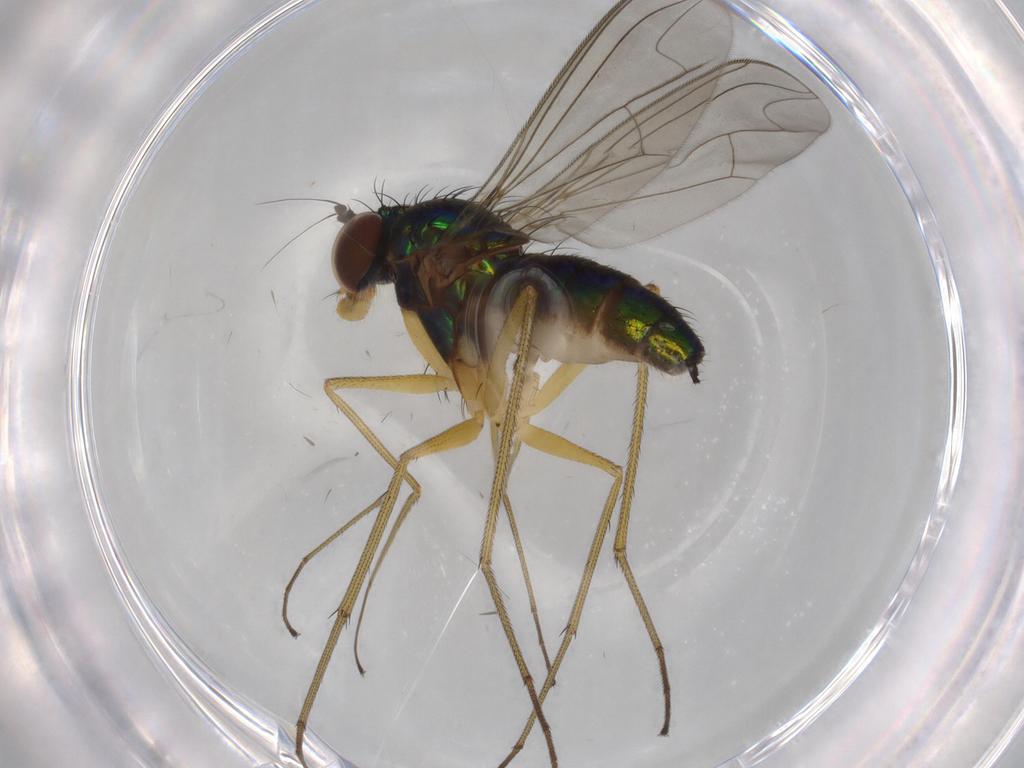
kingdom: Animalia
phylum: Arthropoda
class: Insecta
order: Diptera
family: Dolichopodidae
